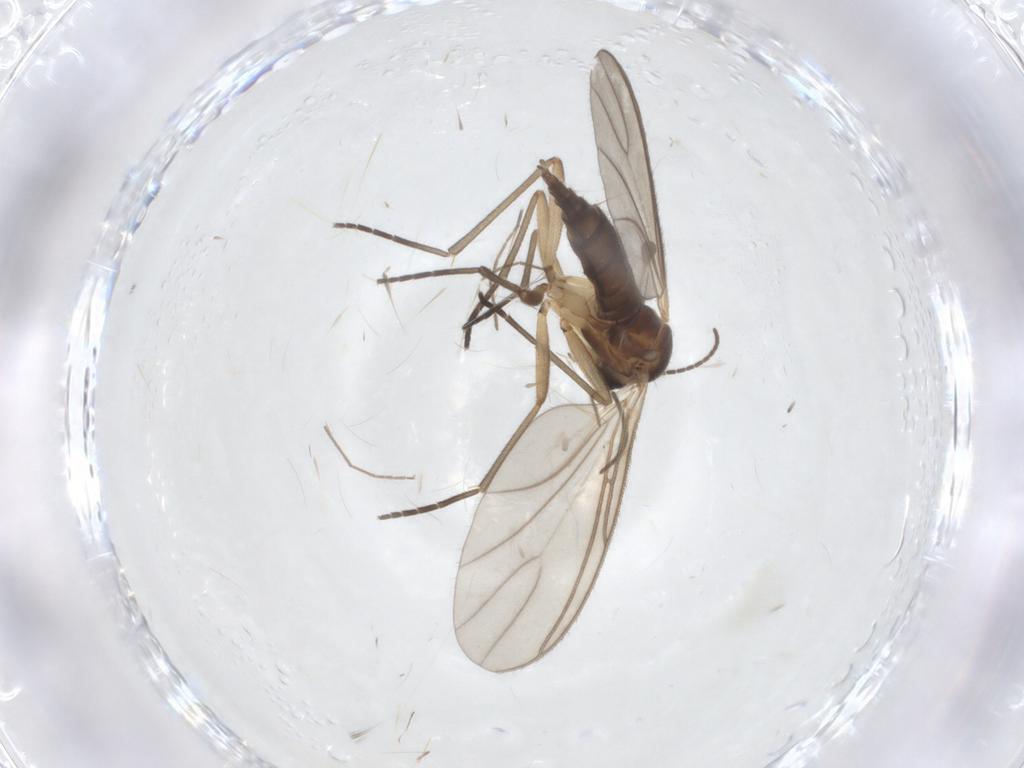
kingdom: Animalia
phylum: Arthropoda
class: Insecta
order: Diptera
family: Sciaridae
